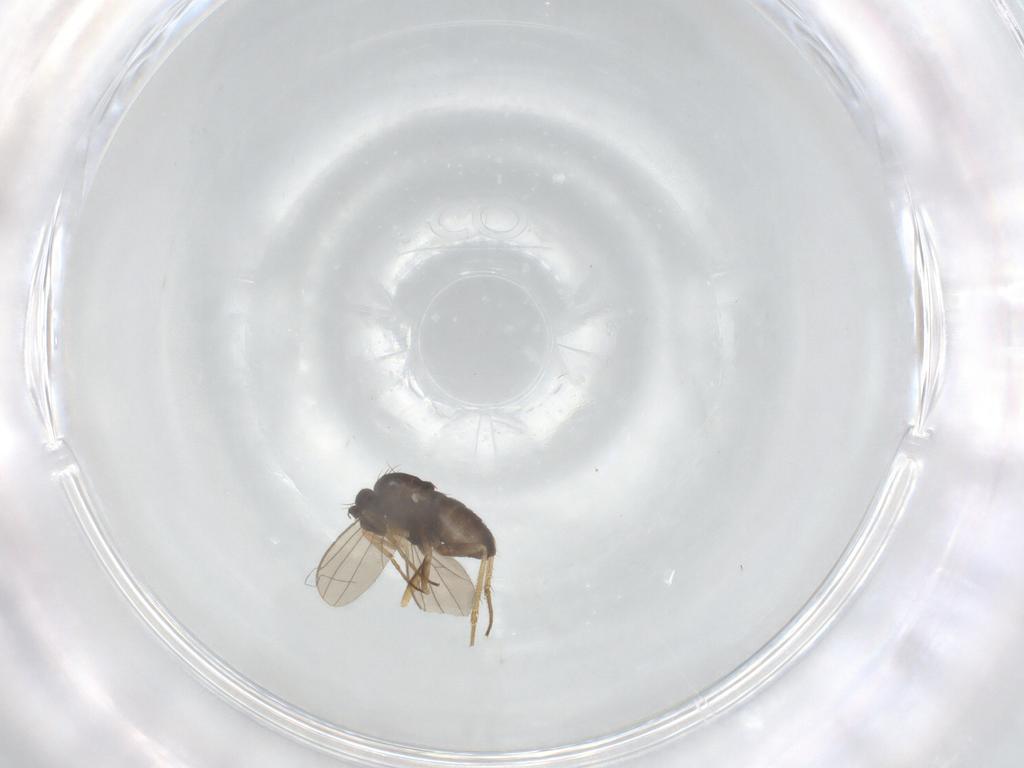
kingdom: Animalia
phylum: Arthropoda
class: Insecta
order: Diptera
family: Dolichopodidae
